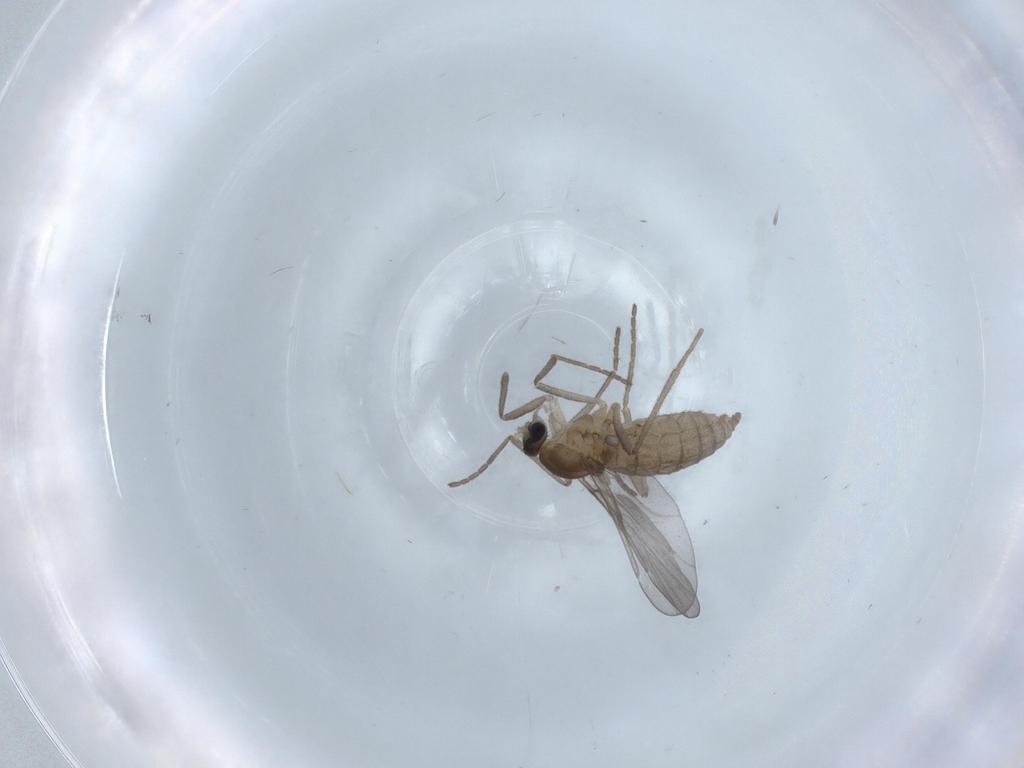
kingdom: Animalia
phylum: Arthropoda
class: Insecta
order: Diptera
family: Cecidomyiidae
